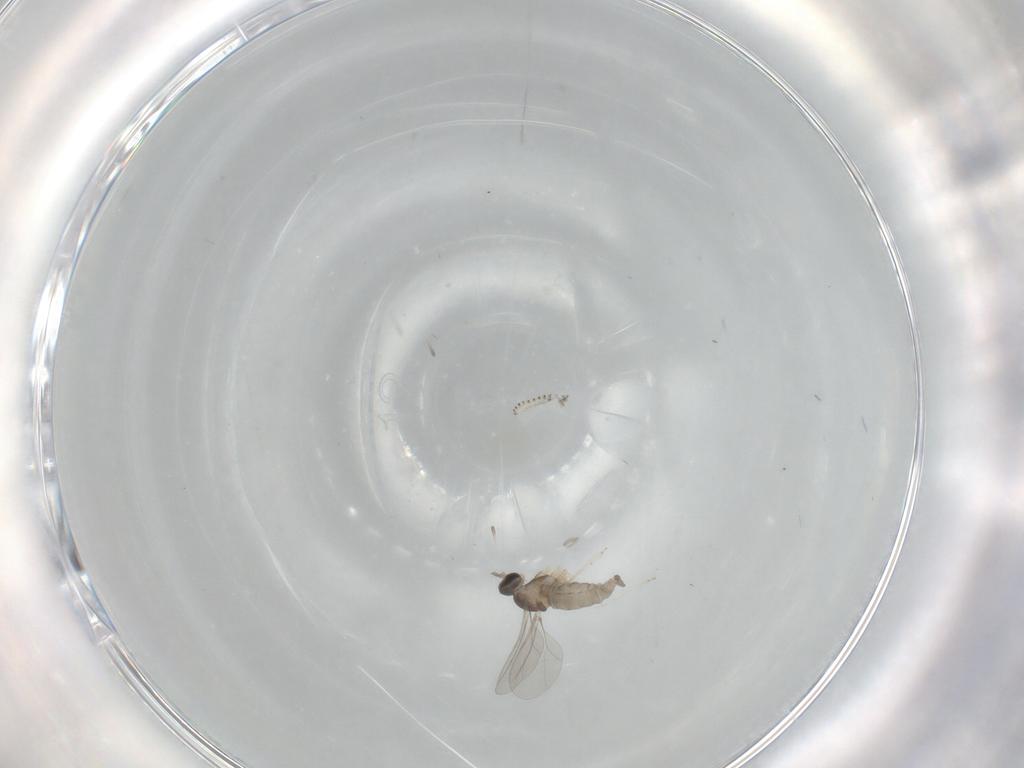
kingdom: Animalia
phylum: Arthropoda
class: Insecta
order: Diptera
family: Cecidomyiidae
